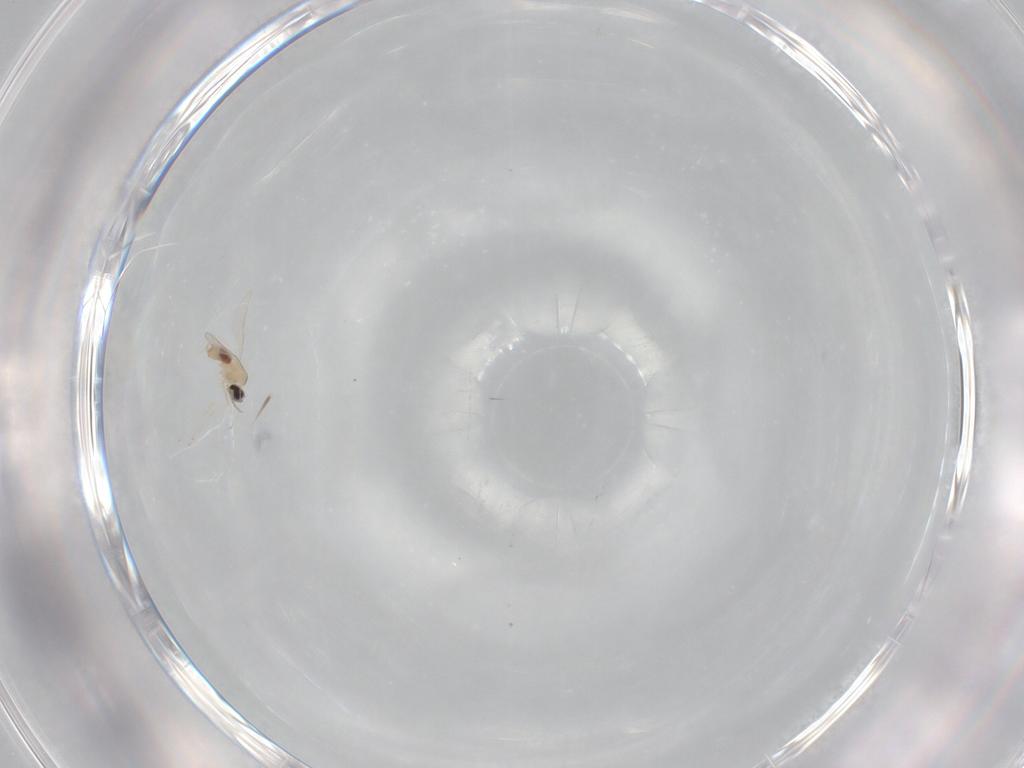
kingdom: Animalia
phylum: Arthropoda
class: Insecta
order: Diptera
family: Cecidomyiidae
